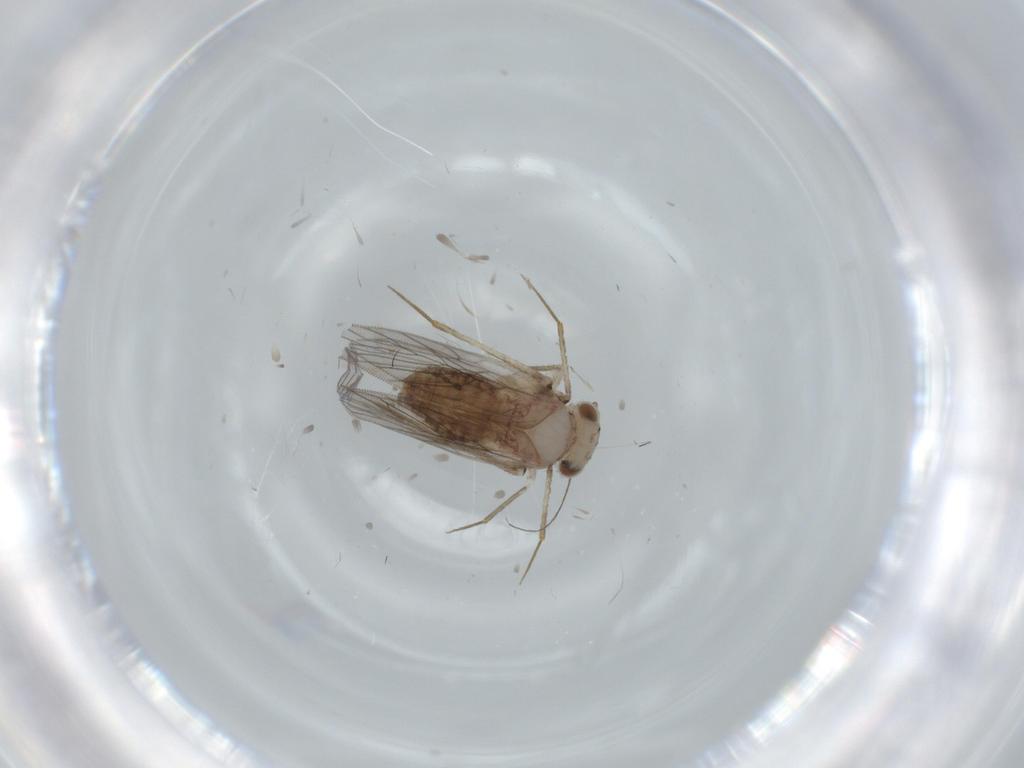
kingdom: Animalia
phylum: Arthropoda
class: Insecta
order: Psocodea
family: Lepidopsocidae
